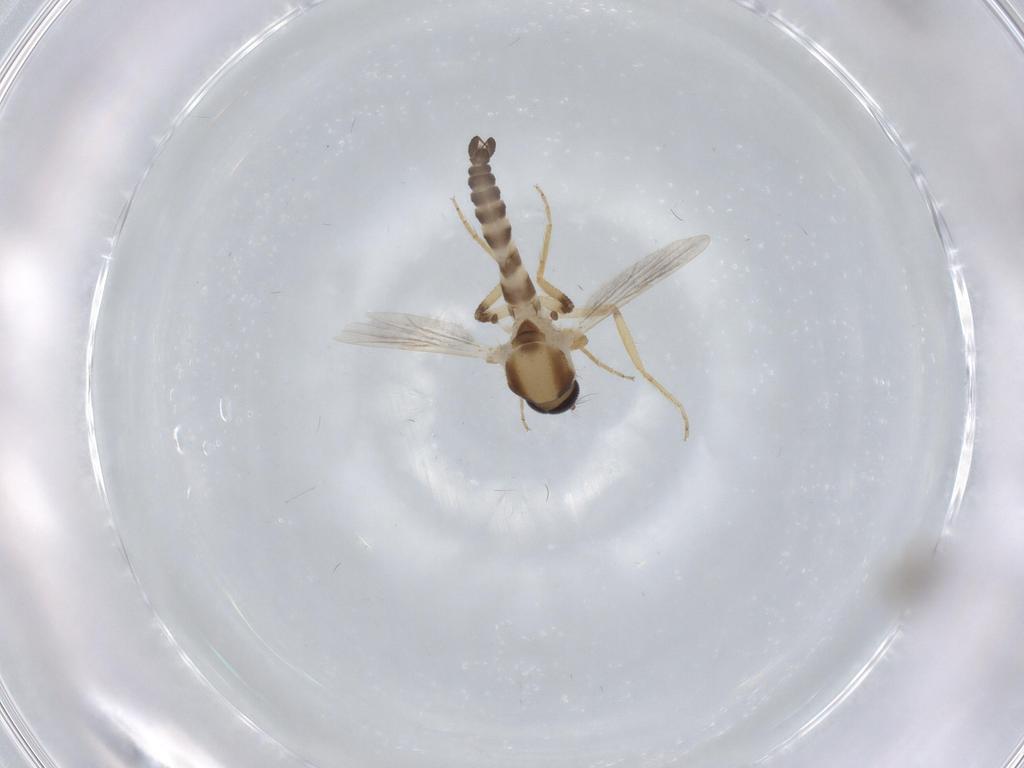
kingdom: Animalia
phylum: Arthropoda
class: Insecta
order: Diptera
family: Ceratopogonidae
